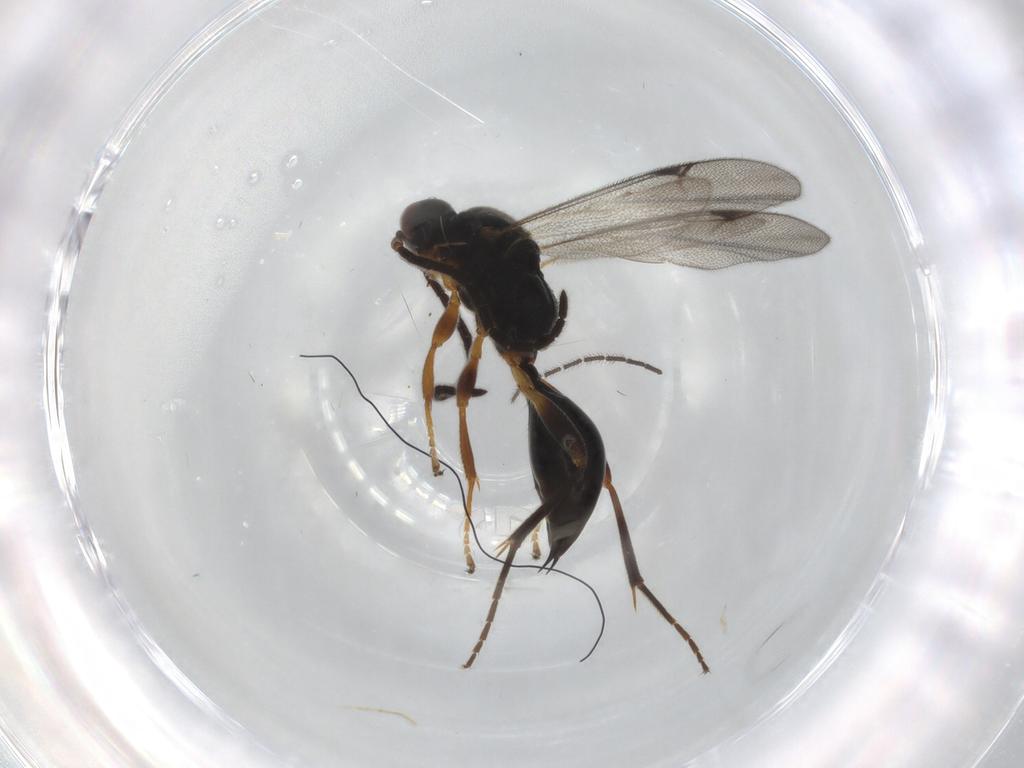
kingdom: Animalia
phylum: Arthropoda
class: Insecta
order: Hymenoptera
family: Proctotrupidae
